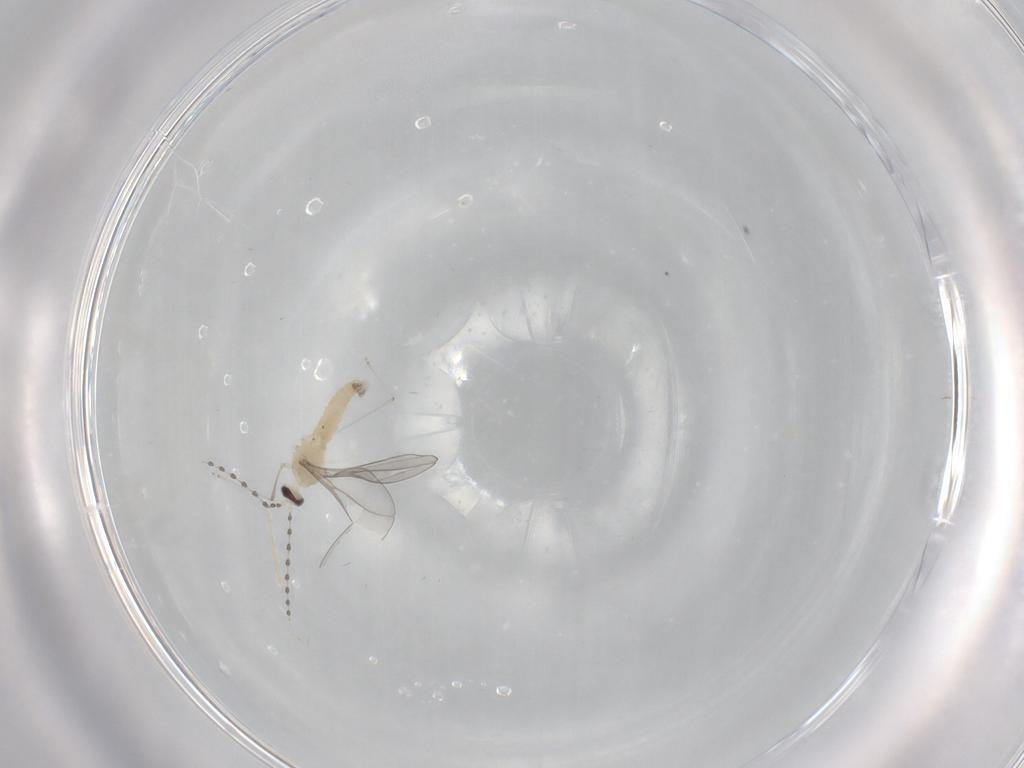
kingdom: Animalia
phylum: Arthropoda
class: Insecta
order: Diptera
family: Cecidomyiidae
